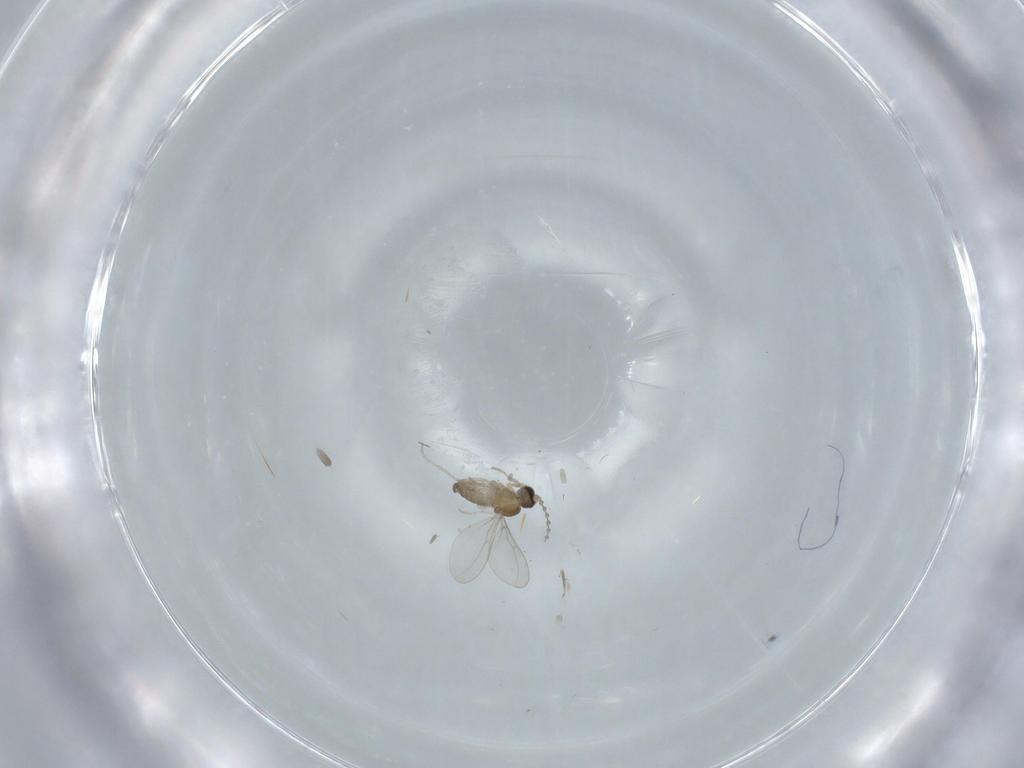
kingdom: Animalia
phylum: Arthropoda
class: Insecta
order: Diptera
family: Cecidomyiidae
